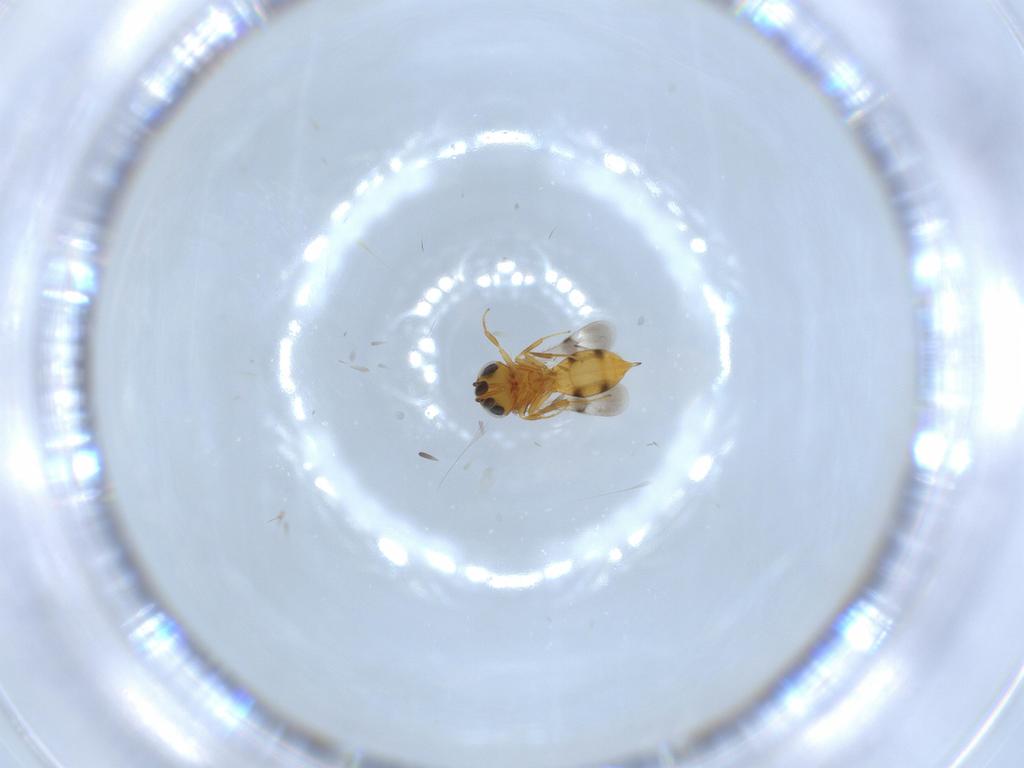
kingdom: Animalia
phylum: Arthropoda
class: Insecta
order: Hymenoptera
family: Scelionidae
